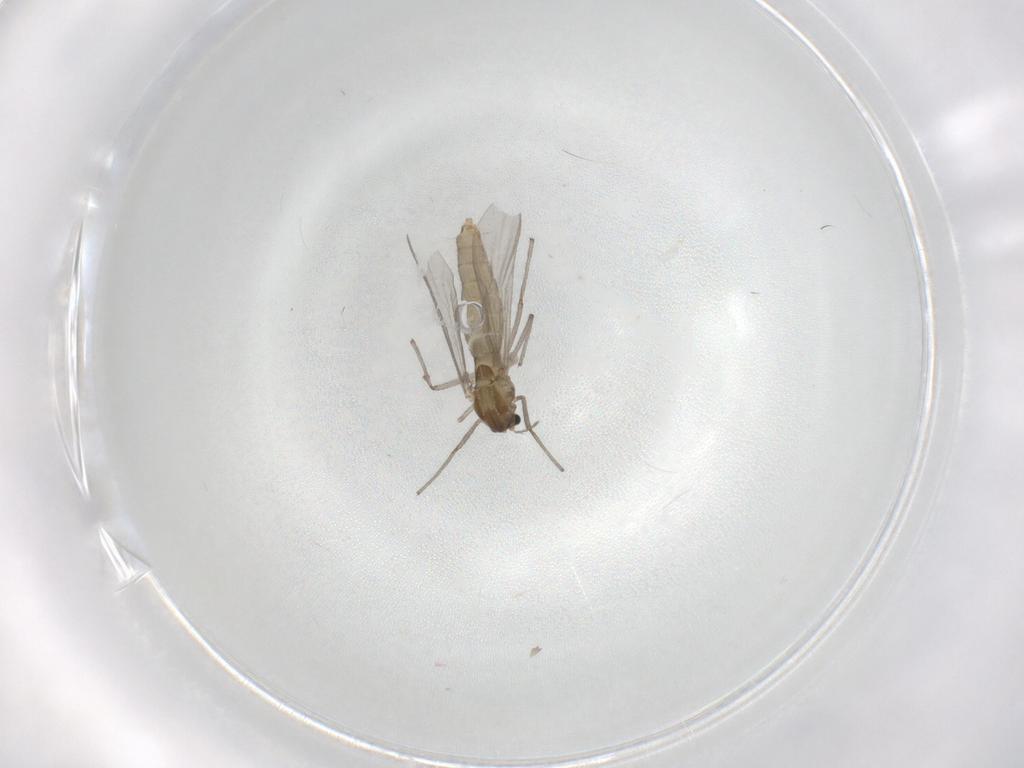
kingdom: Animalia
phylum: Arthropoda
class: Insecta
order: Diptera
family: Chironomidae
